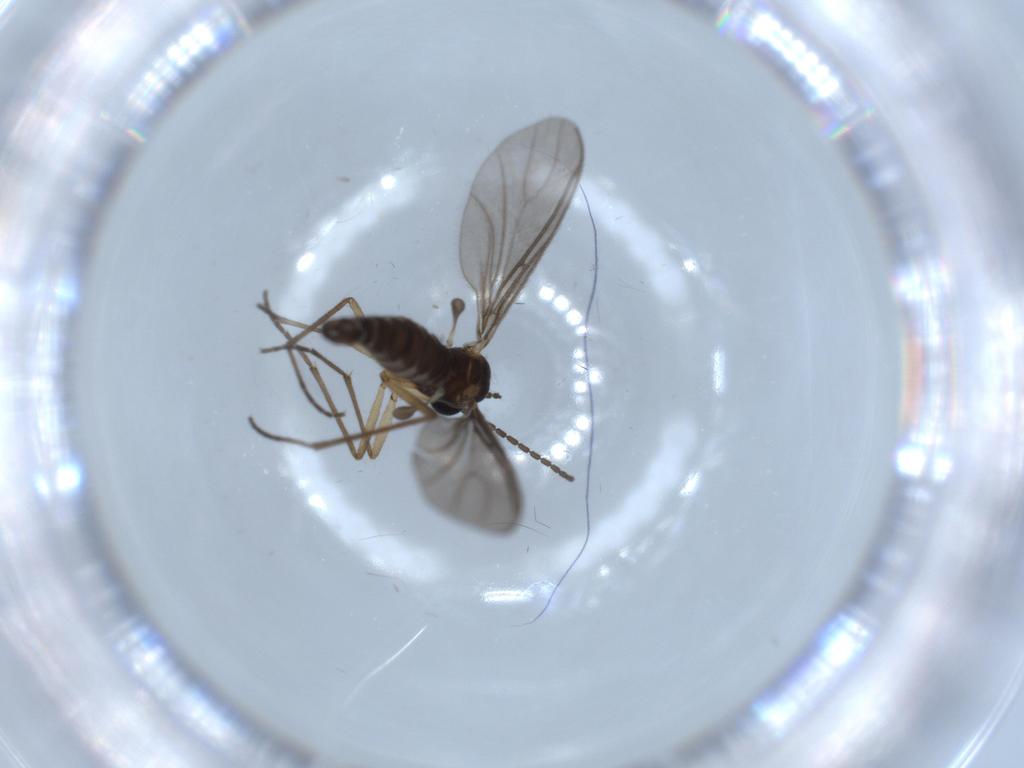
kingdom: Animalia
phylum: Arthropoda
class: Insecta
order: Diptera
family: Sciaridae
